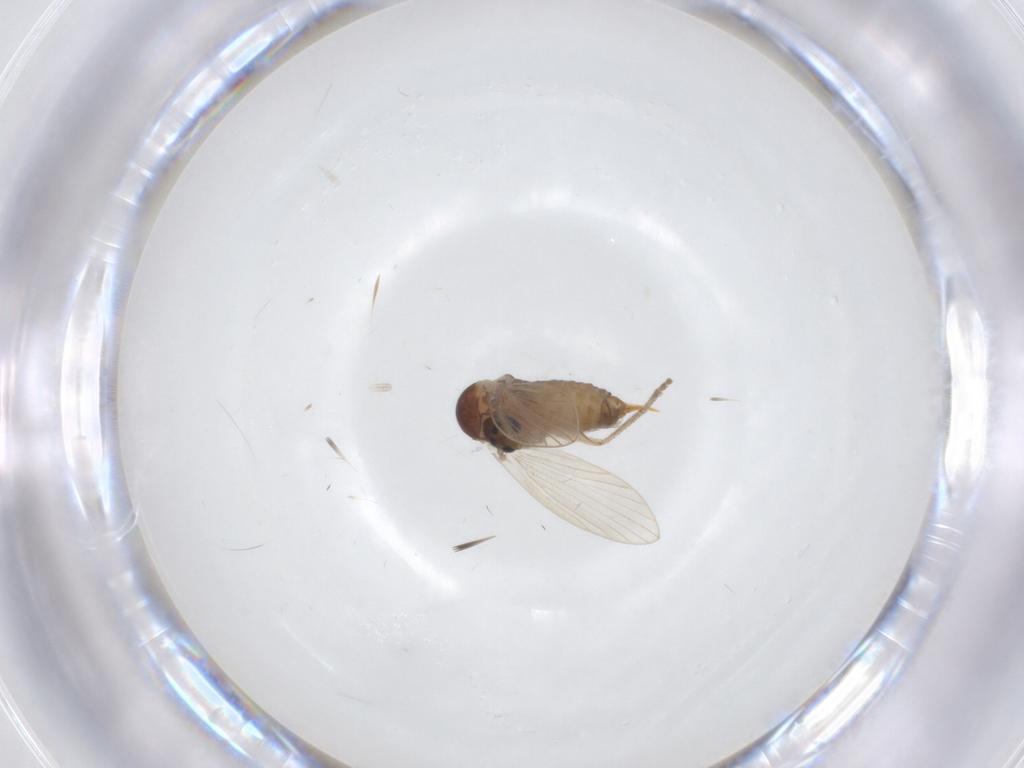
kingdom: Animalia
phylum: Arthropoda
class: Insecta
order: Diptera
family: Psychodidae
